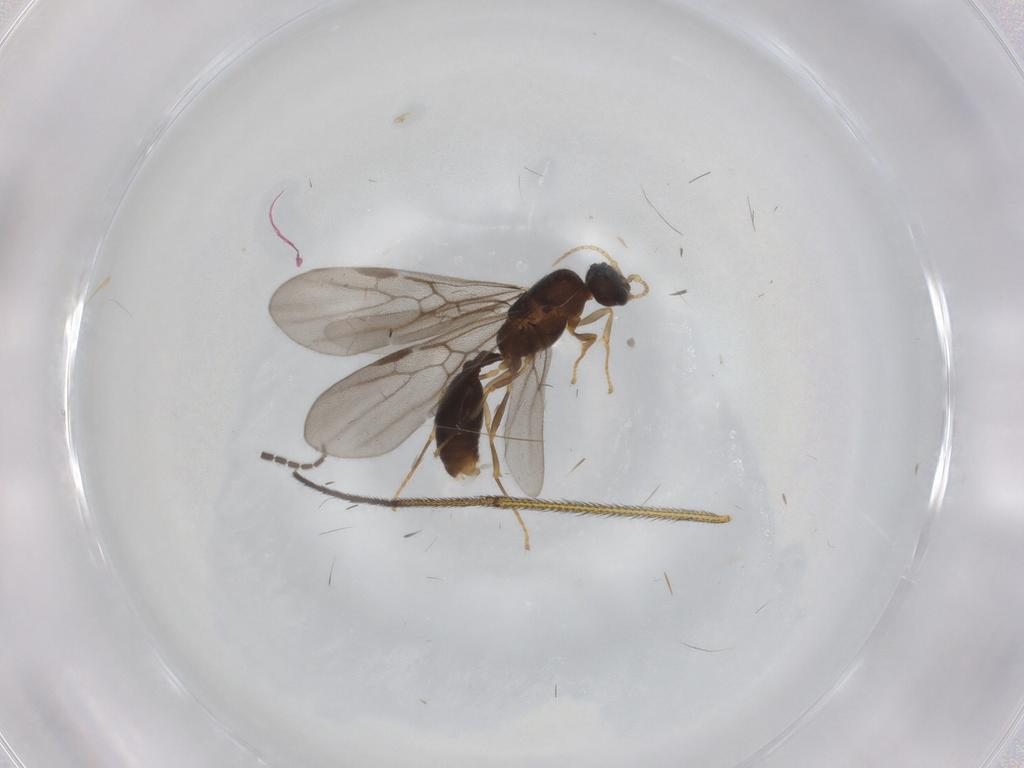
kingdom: Animalia
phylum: Arthropoda
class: Insecta
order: Hymenoptera
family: Formicidae
